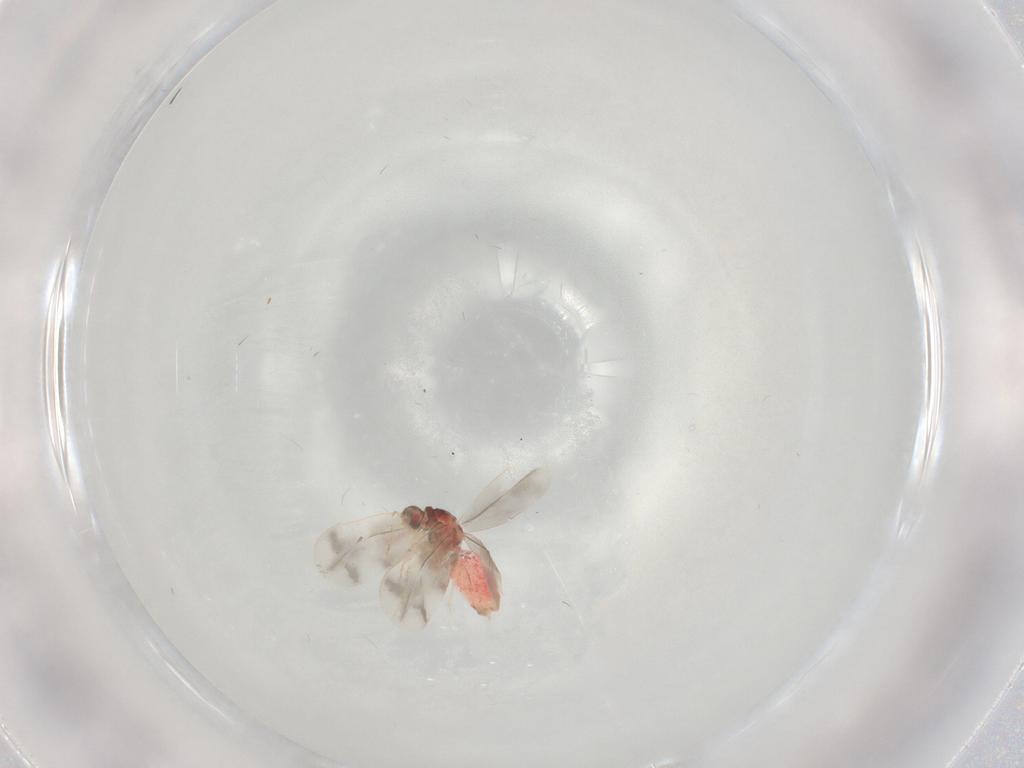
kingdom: Animalia
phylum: Arthropoda
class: Insecta
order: Hemiptera
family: Aleyrodidae
